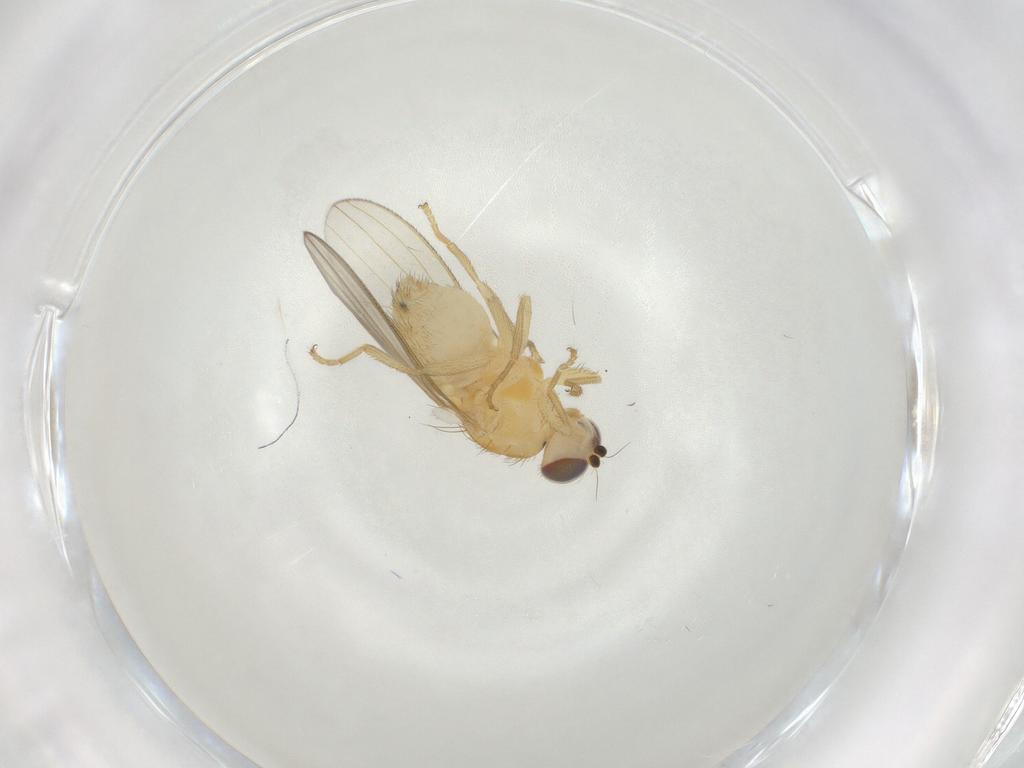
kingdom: Animalia
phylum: Arthropoda
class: Insecta
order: Diptera
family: Chyromyidae
